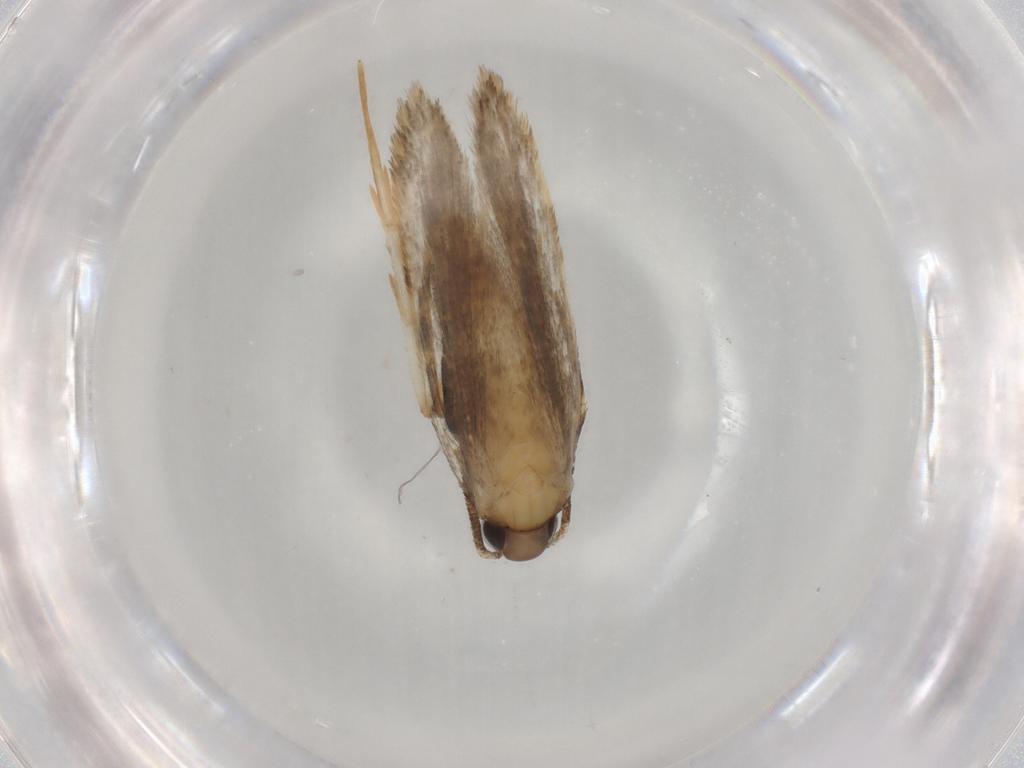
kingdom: Animalia
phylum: Arthropoda
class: Insecta
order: Lepidoptera
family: Autostichidae
